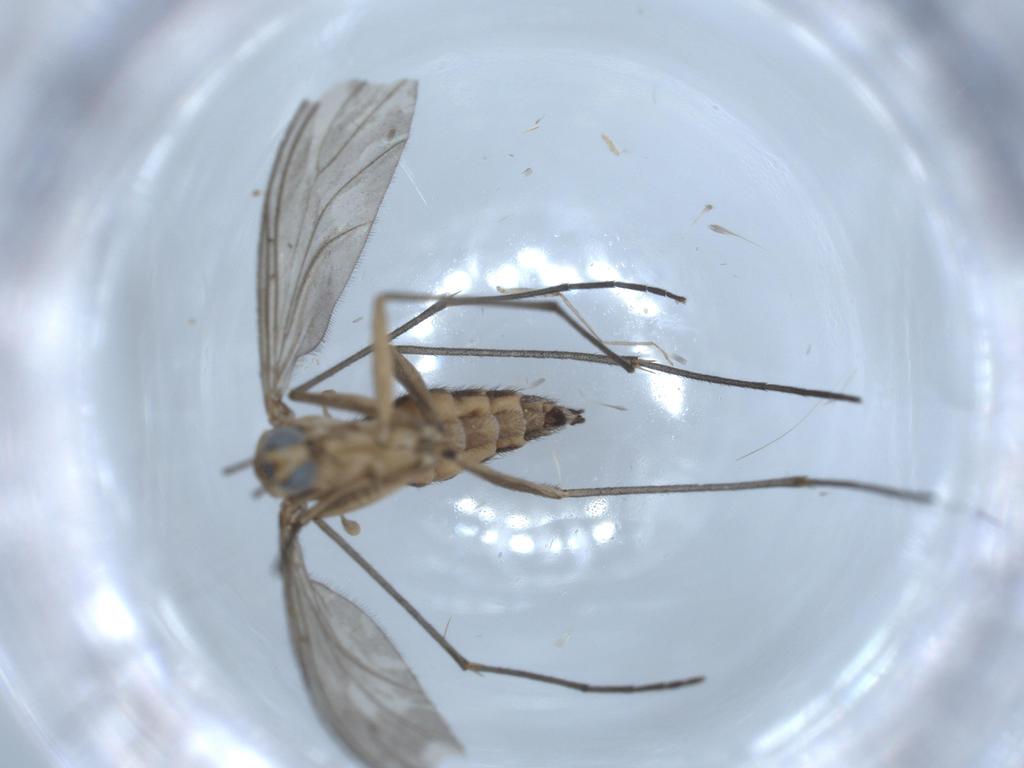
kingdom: Animalia
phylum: Arthropoda
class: Insecta
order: Diptera
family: Sciaridae
